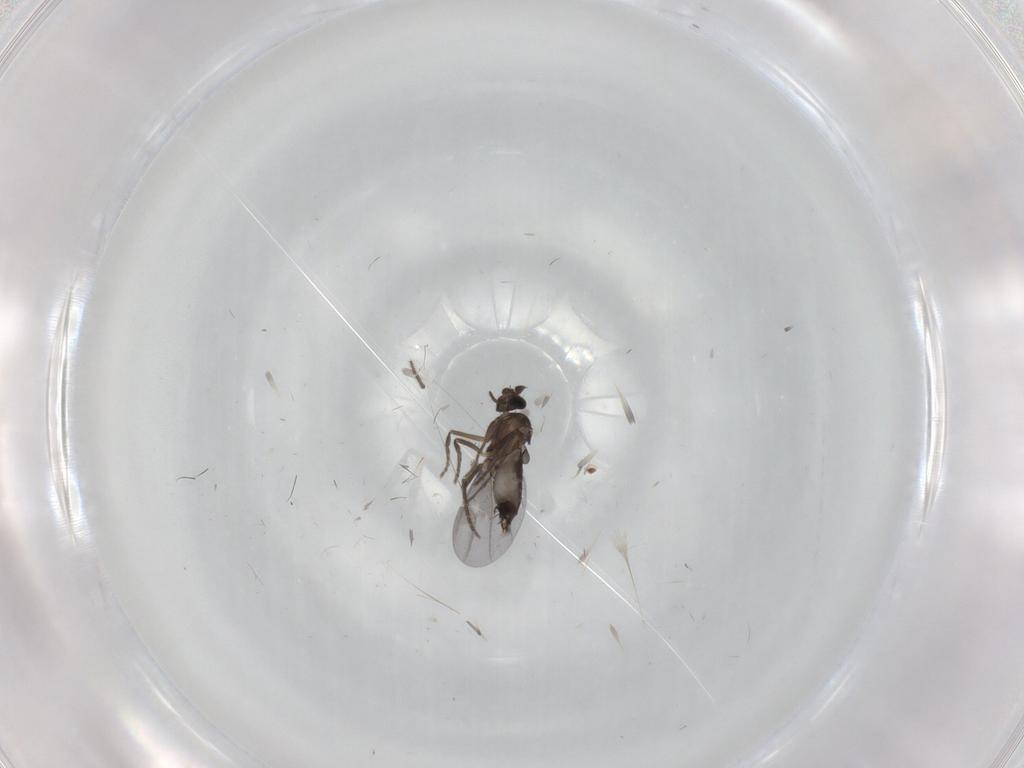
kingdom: Animalia
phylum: Arthropoda
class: Insecta
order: Diptera
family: Phoridae
